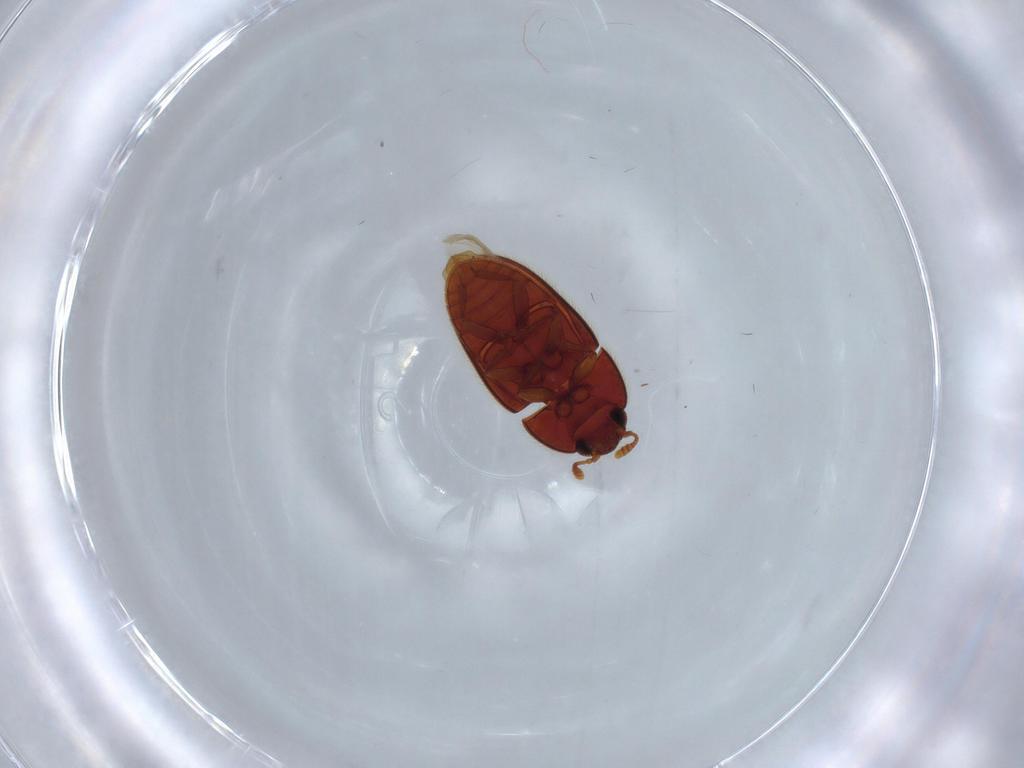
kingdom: Animalia
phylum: Arthropoda
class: Insecta
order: Coleoptera
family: Biphyllidae
